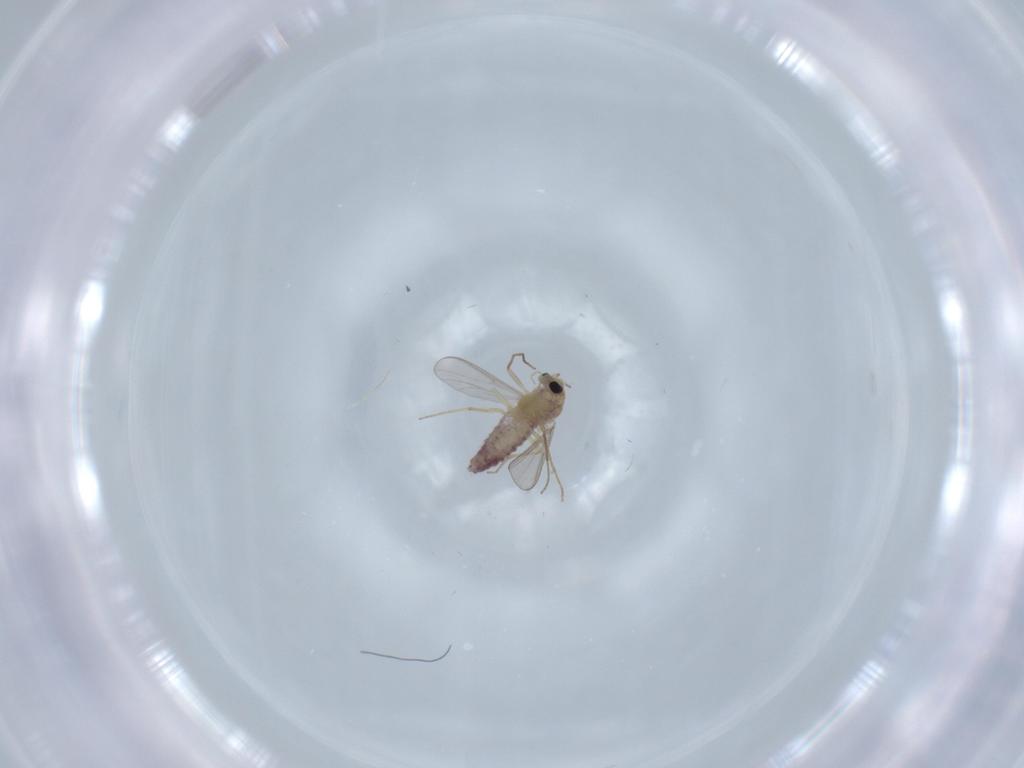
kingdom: Animalia
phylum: Arthropoda
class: Insecta
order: Diptera
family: Chironomidae
